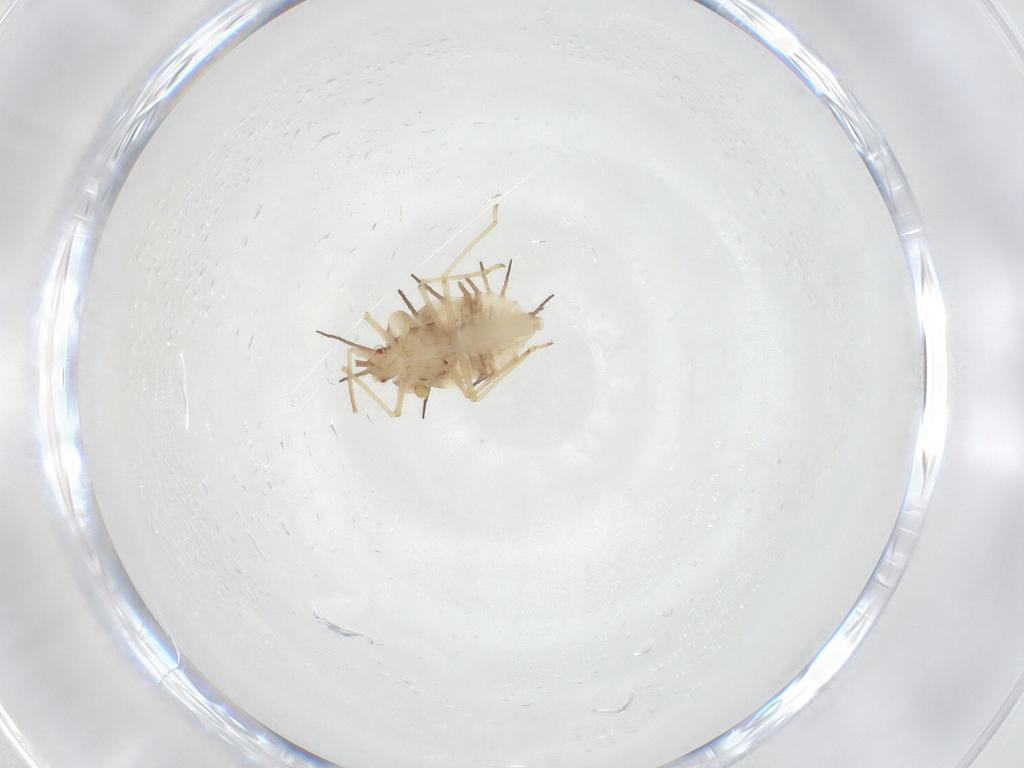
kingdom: Animalia
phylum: Arthropoda
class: Insecta
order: Hemiptera
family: Tingidae
